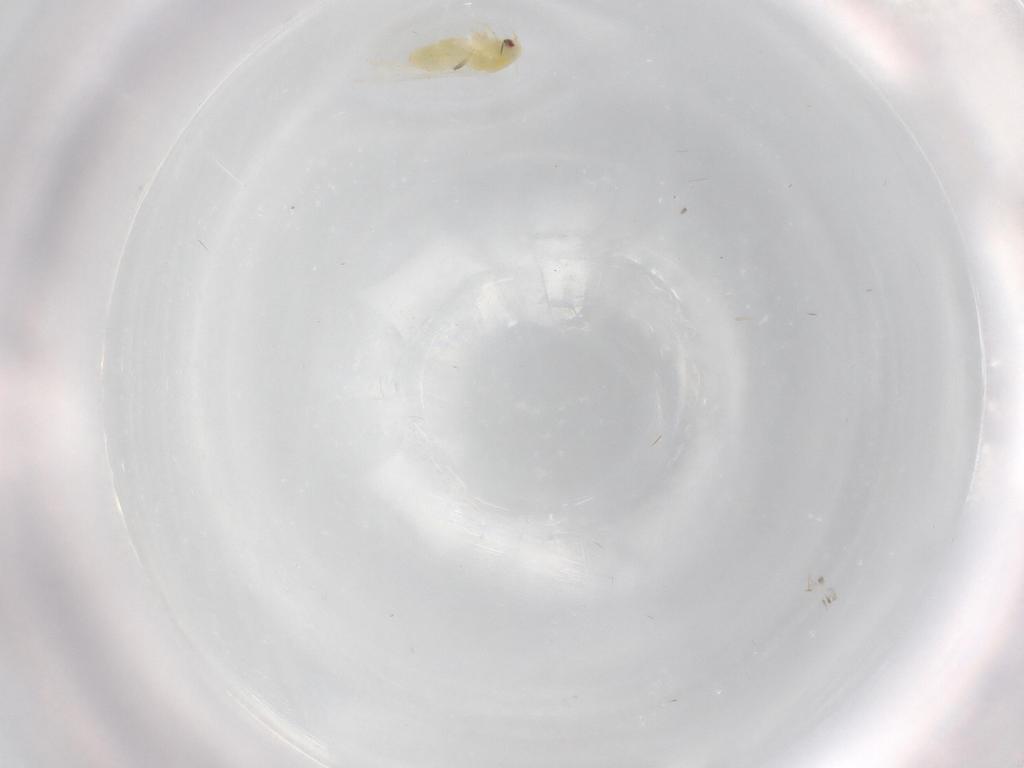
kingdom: Animalia
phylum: Arthropoda
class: Insecta
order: Hemiptera
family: Aleyrodidae
